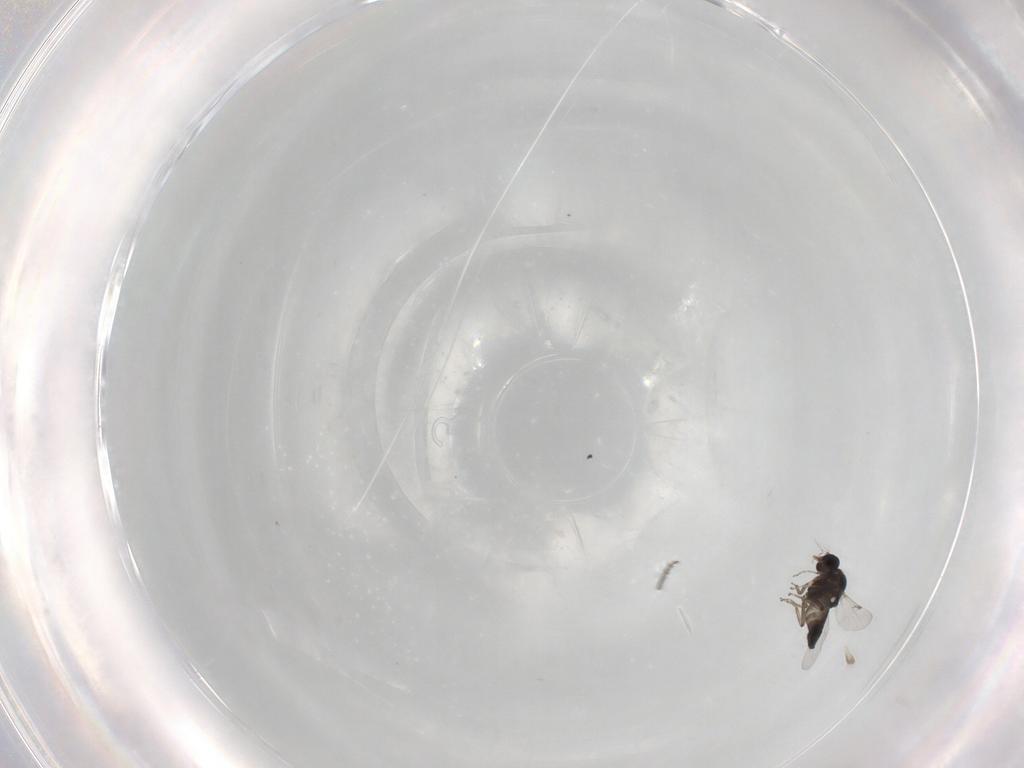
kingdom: Animalia
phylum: Arthropoda
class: Insecta
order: Diptera
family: Ceratopogonidae
